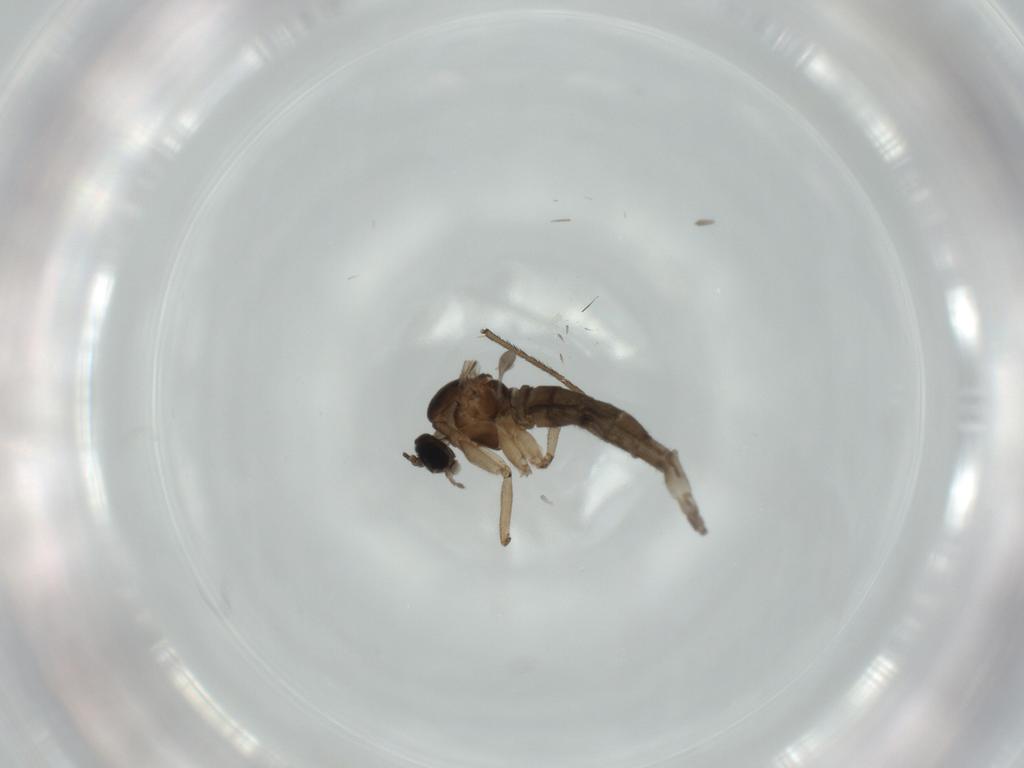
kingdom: Animalia
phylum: Arthropoda
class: Insecta
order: Diptera
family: Sciaridae
